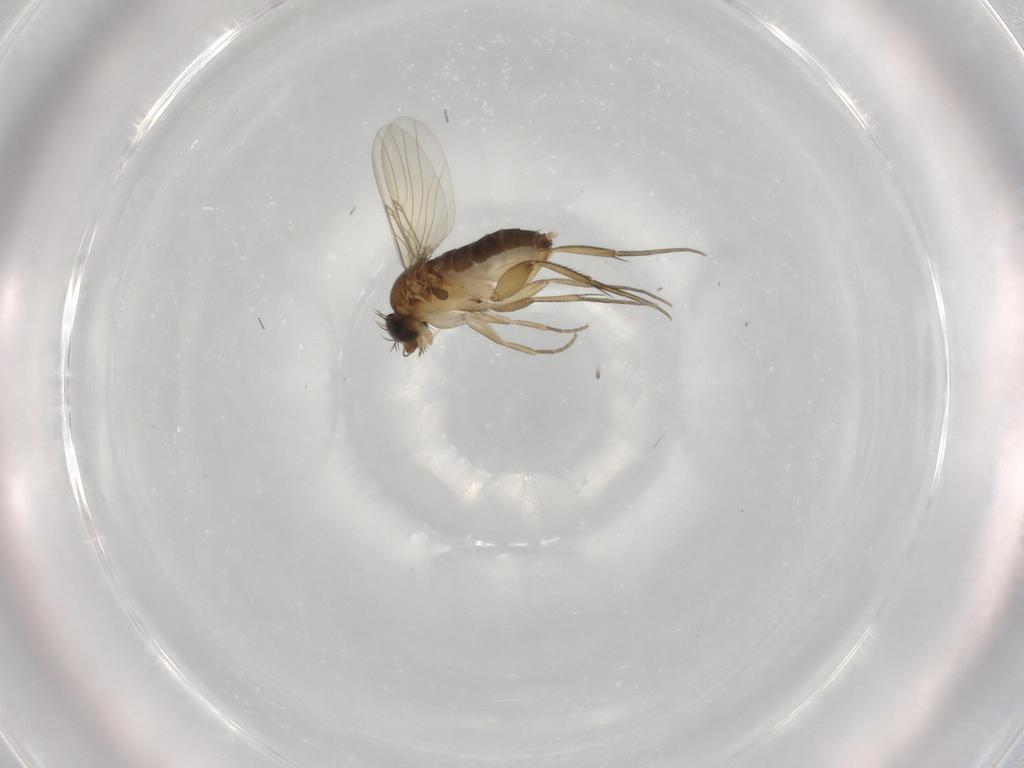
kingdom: Animalia
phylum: Arthropoda
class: Insecta
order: Diptera
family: Phoridae
